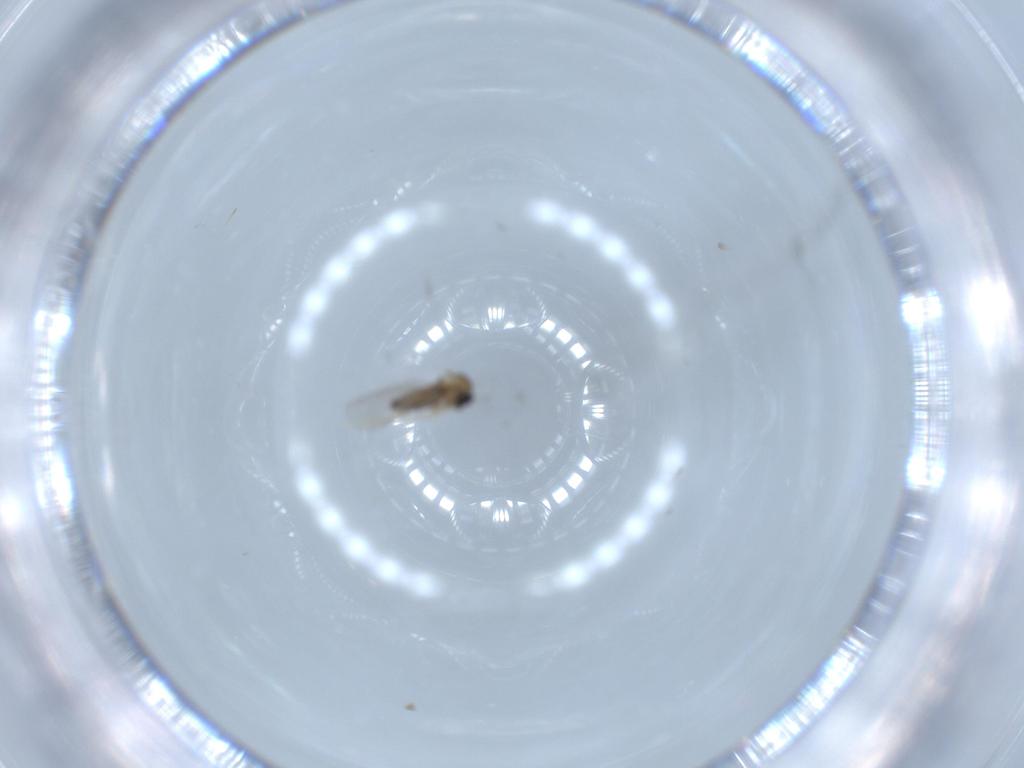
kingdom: Animalia
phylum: Arthropoda
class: Insecta
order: Diptera
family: Cecidomyiidae
